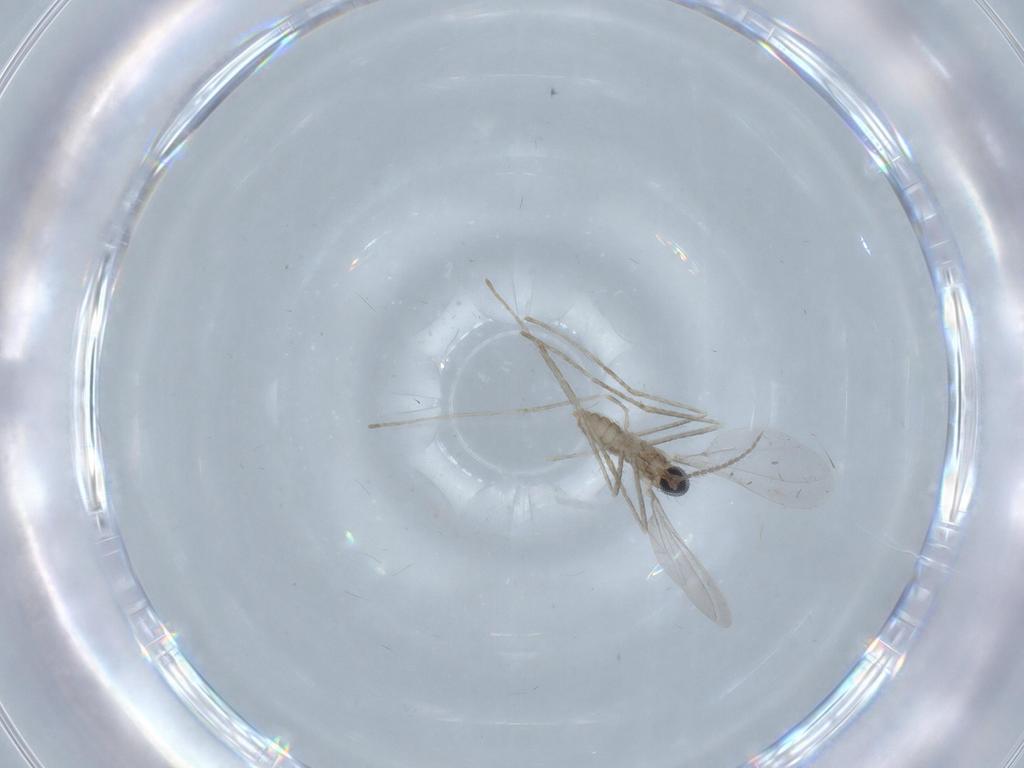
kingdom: Animalia
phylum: Arthropoda
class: Insecta
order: Diptera
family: Cecidomyiidae
